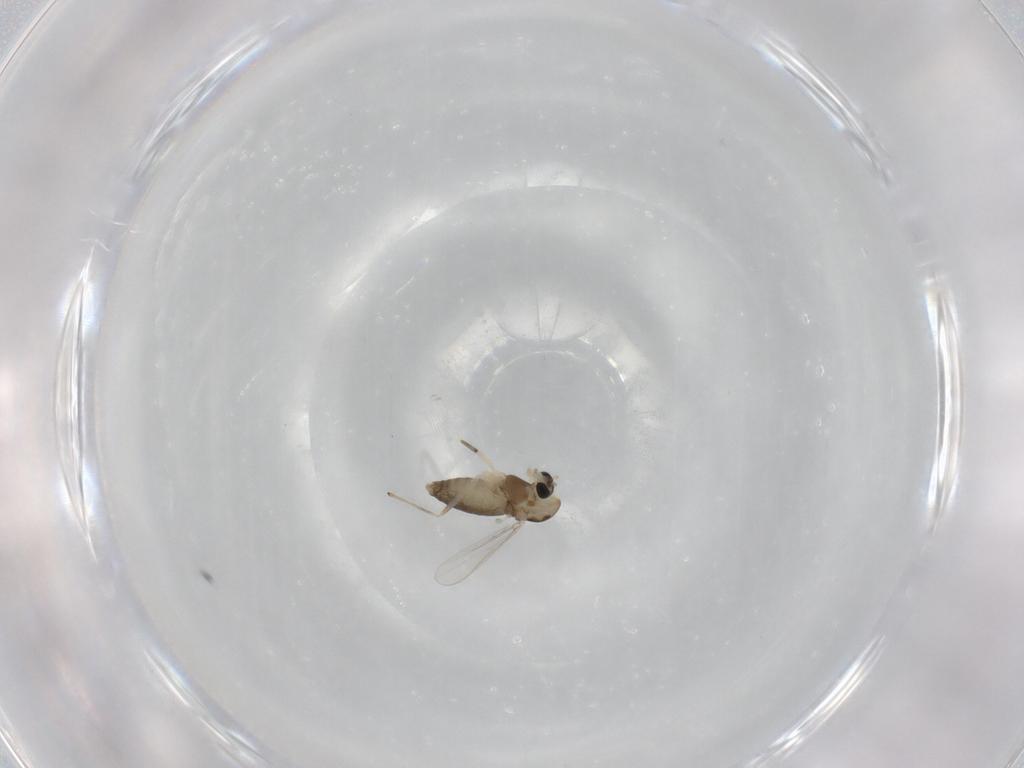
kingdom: Animalia
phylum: Arthropoda
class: Insecta
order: Diptera
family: Chironomidae
